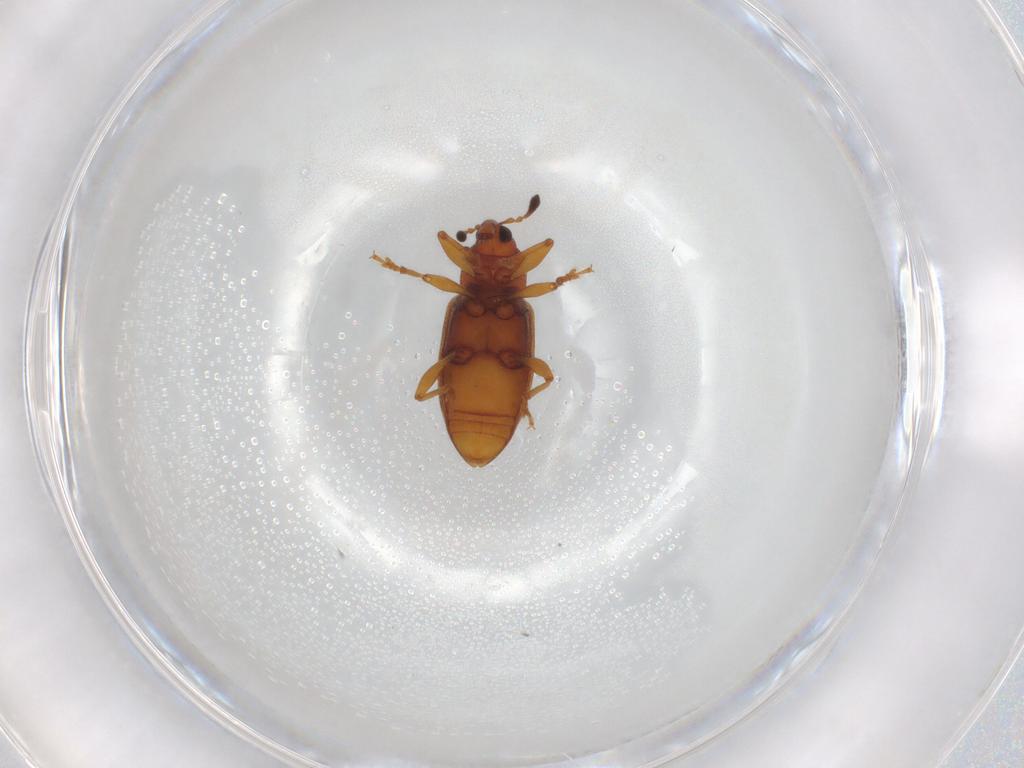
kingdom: Animalia
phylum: Arthropoda
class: Insecta
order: Coleoptera
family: Curculionidae
